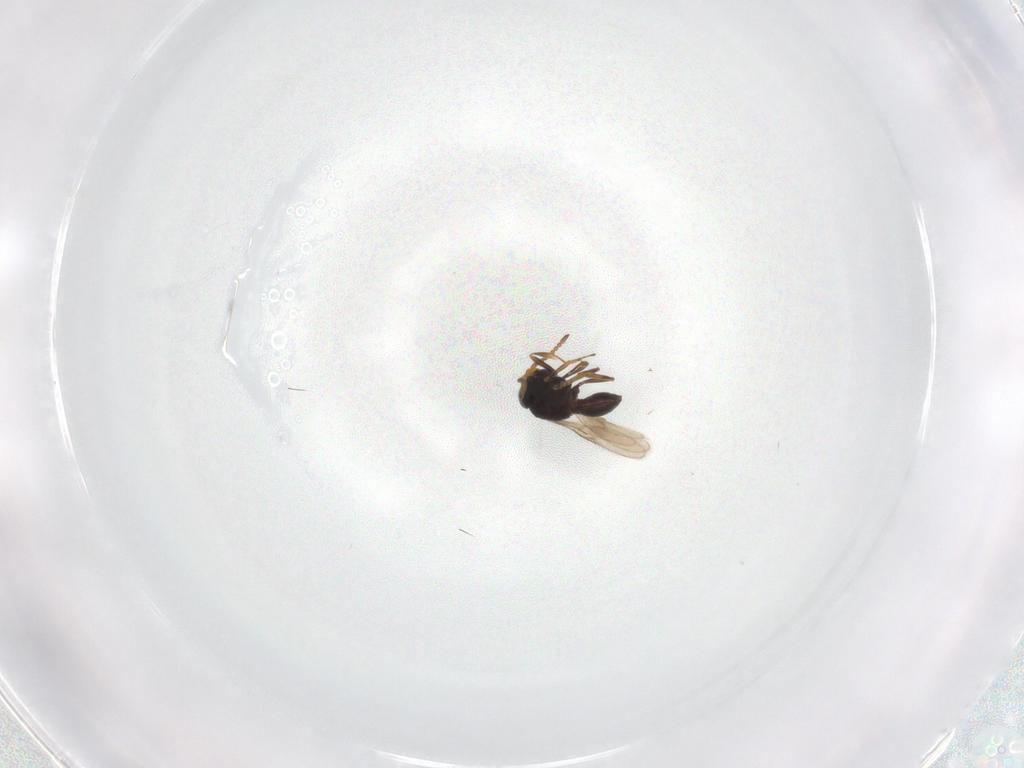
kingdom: Animalia
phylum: Arthropoda
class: Insecta
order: Hymenoptera
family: Scelionidae
